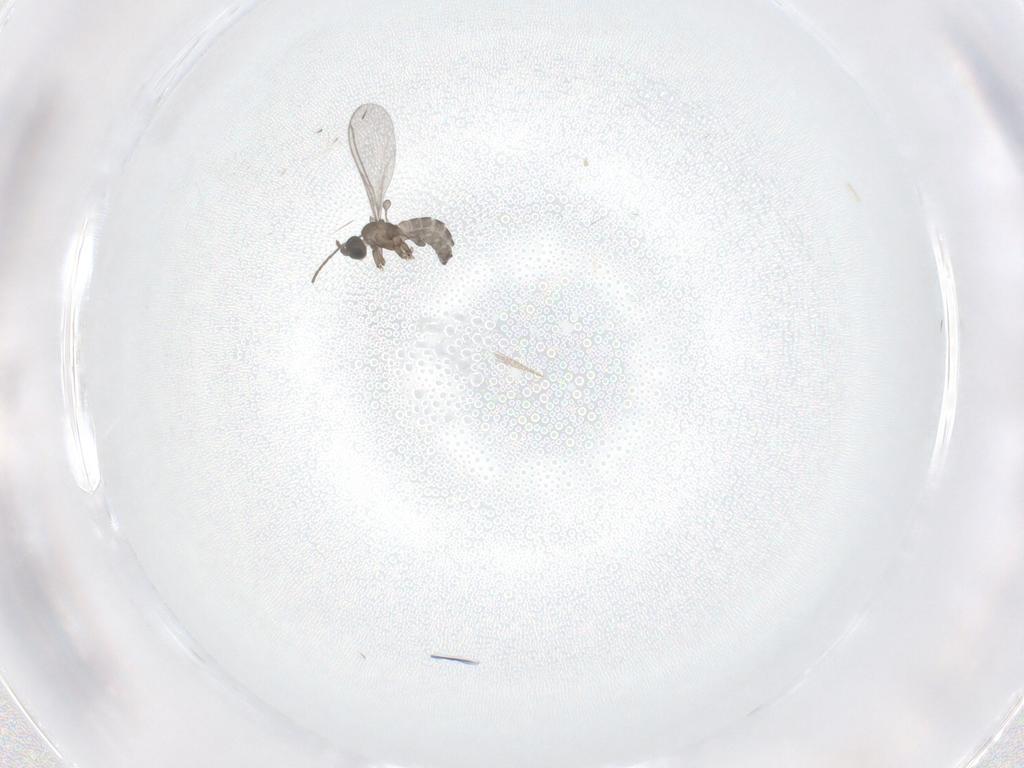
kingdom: Animalia
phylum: Arthropoda
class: Insecta
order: Diptera
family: Sciaridae
